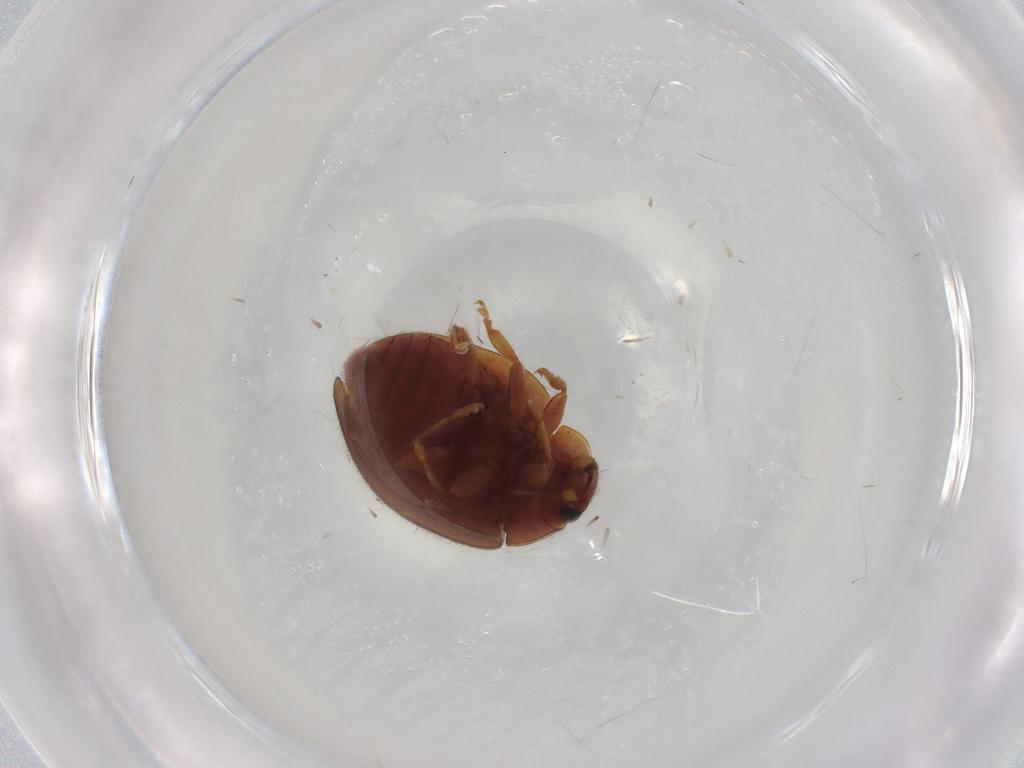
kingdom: Animalia
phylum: Arthropoda
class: Insecta
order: Coleoptera
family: Coccinellidae
